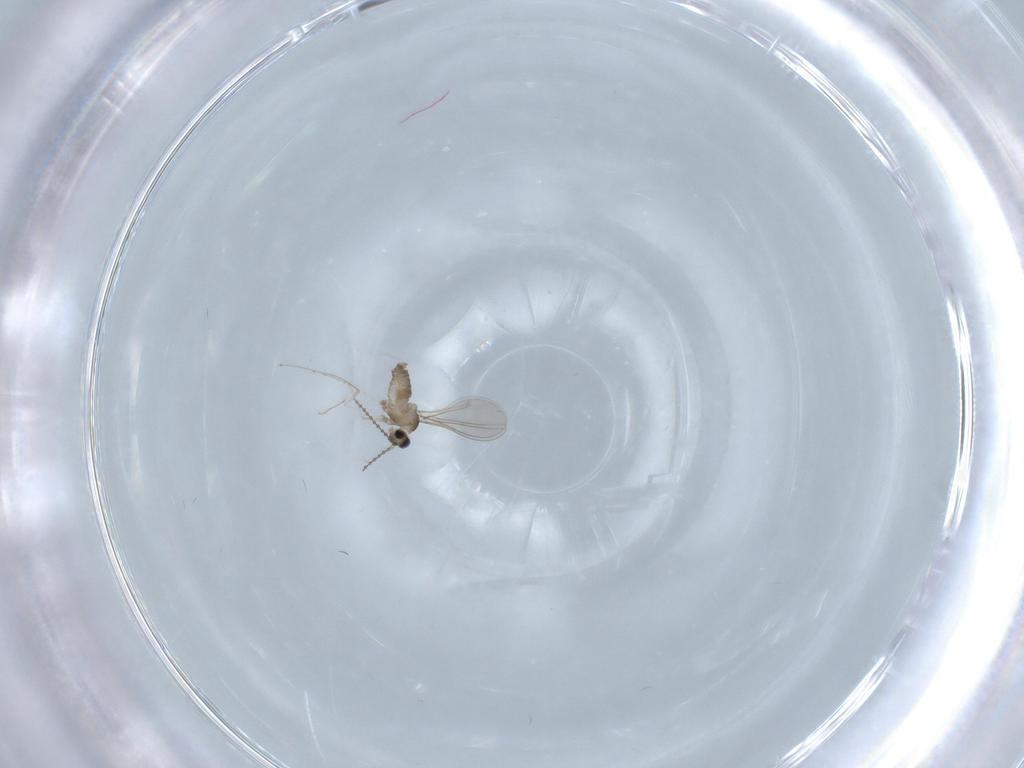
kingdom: Animalia
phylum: Arthropoda
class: Insecta
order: Diptera
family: Cecidomyiidae
